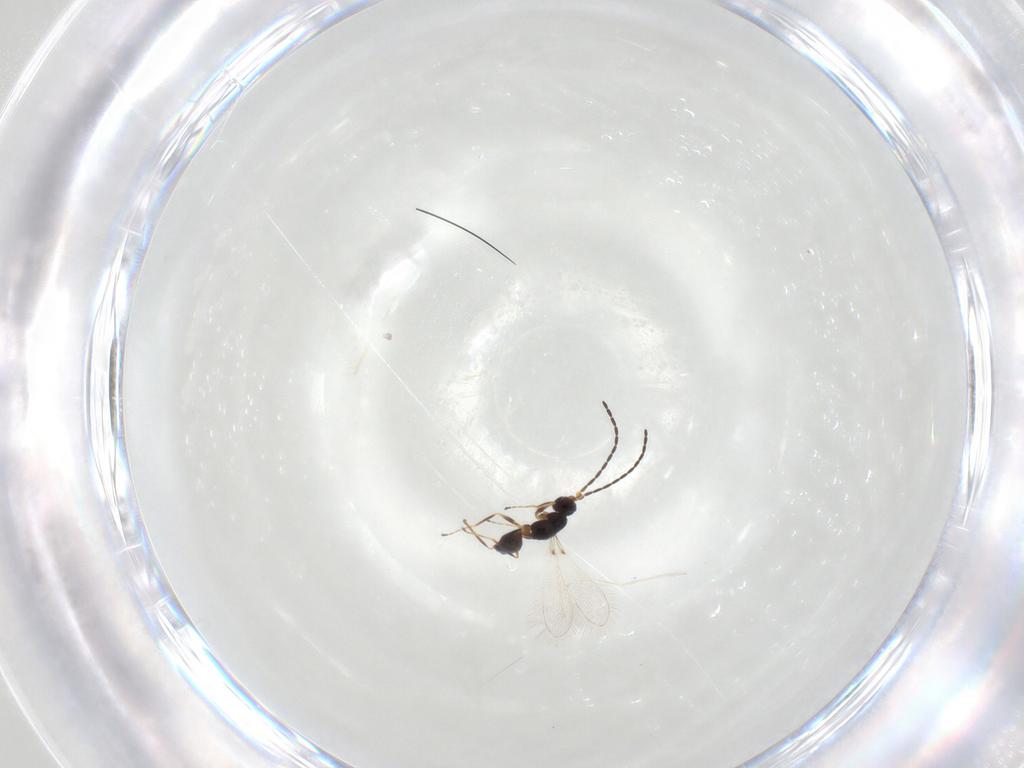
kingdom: Animalia
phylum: Arthropoda
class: Insecta
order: Hymenoptera
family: Mymaridae
